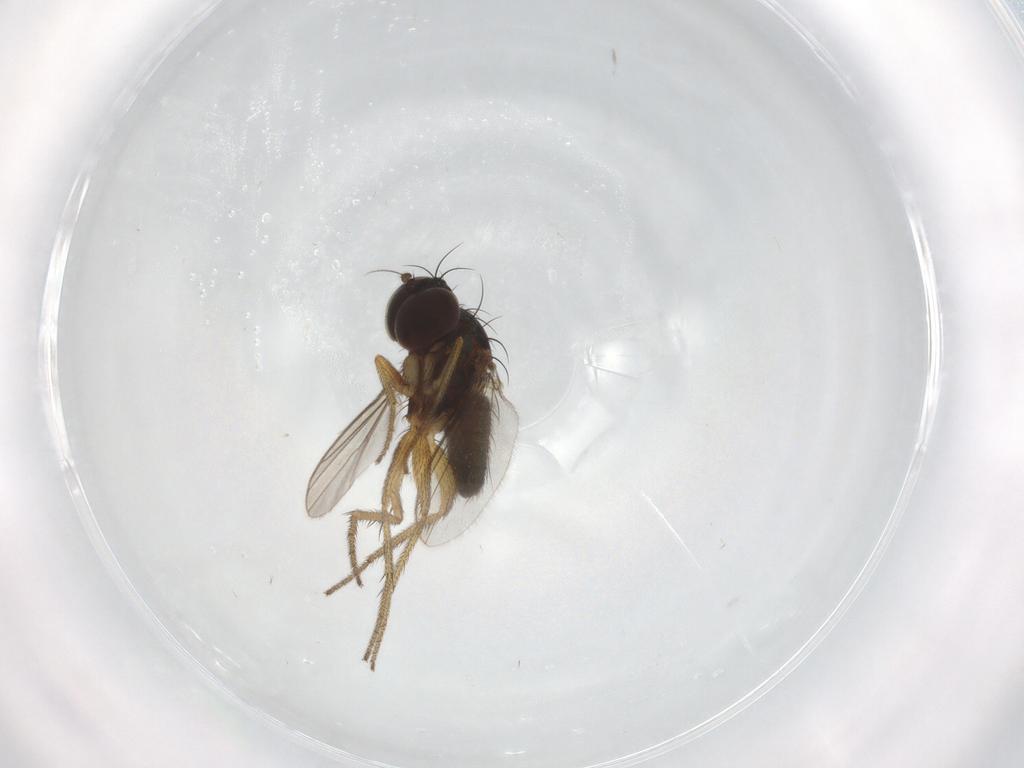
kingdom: Animalia
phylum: Arthropoda
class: Insecta
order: Diptera
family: Dolichopodidae
